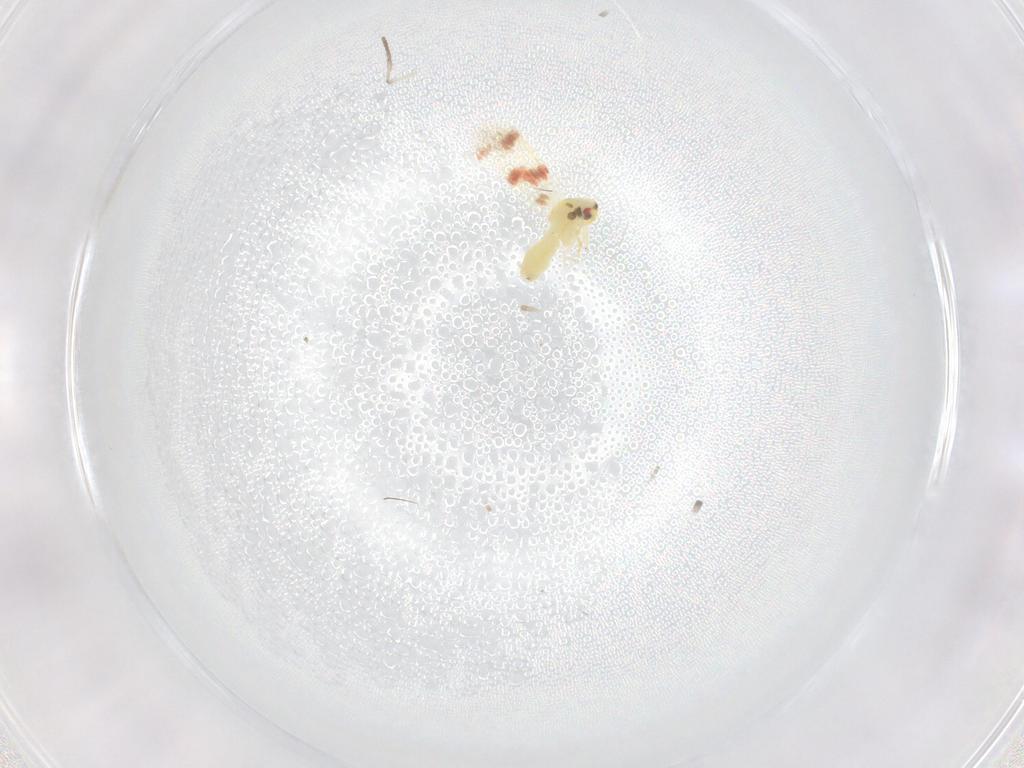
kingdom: Animalia
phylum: Arthropoda
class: Insecta
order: Hemiptera
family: Aleyrodidae
